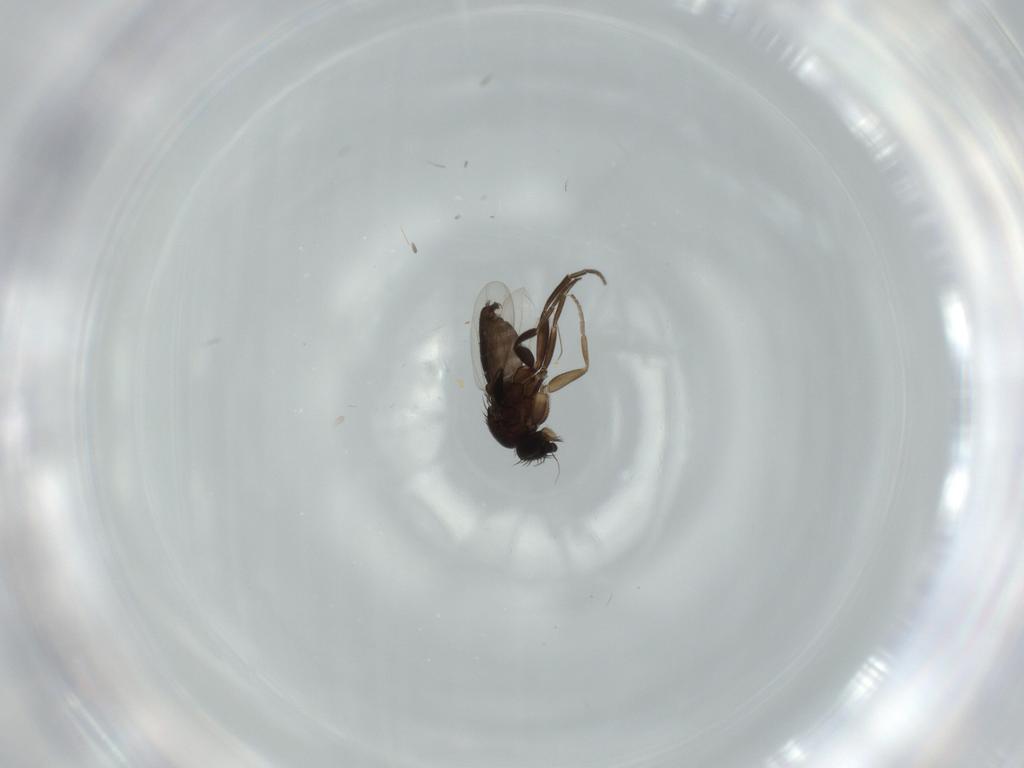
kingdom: Animalia
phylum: Arthropoda
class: Insecta
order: Diptera
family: Phoridae
